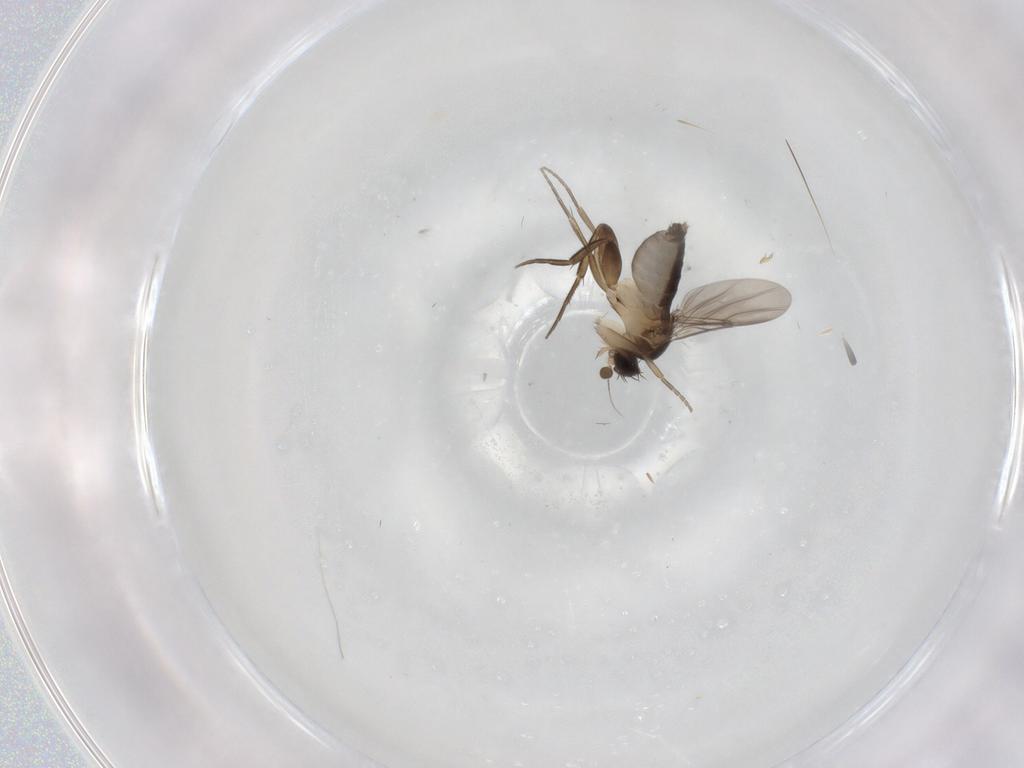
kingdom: Animalia
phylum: Arthropoda
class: Insecta
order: Diptera
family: Phoridae
